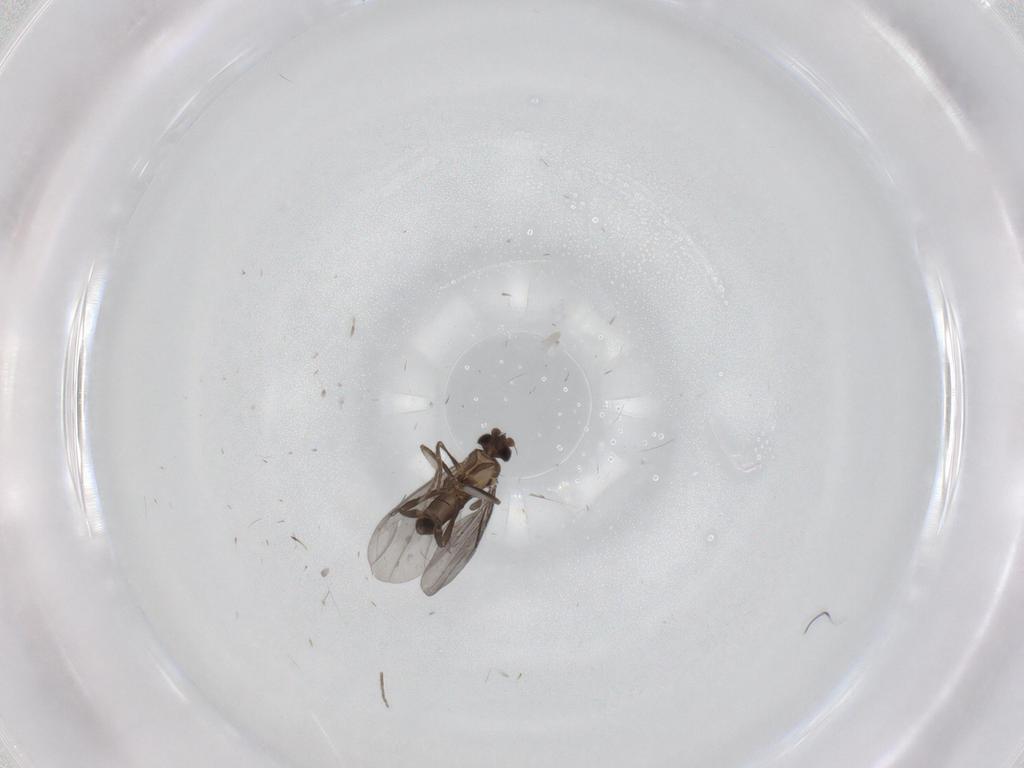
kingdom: Animalia
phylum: Arthropoda
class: Insecta
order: Diptera
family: Phoridae
